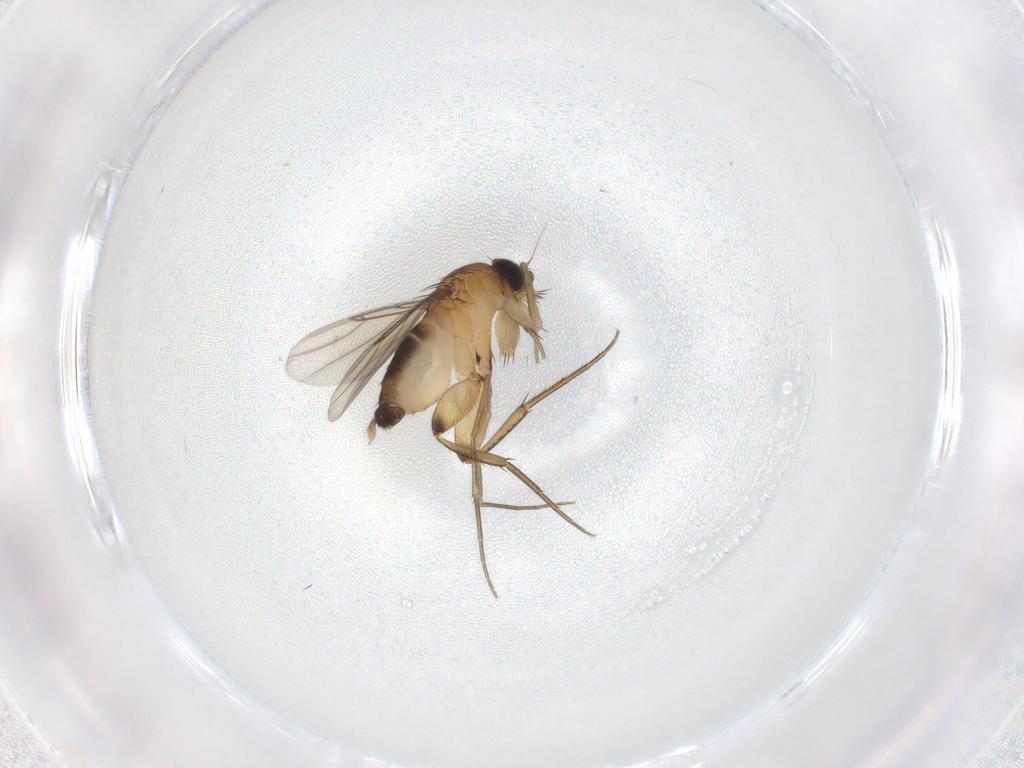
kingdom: Animalia
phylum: Arthropoda
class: Insecta
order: Diptera
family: Phoridae
